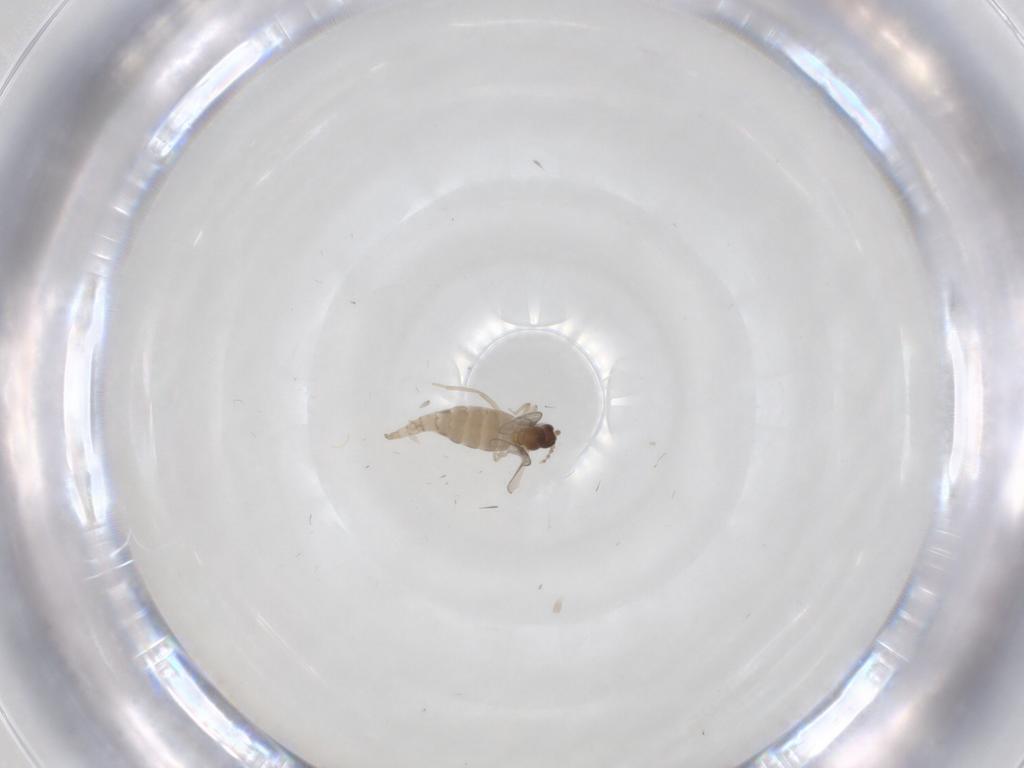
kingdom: Animalia
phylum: Arthropoda
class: Insecta
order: Diptera
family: Cecidomyiidae
